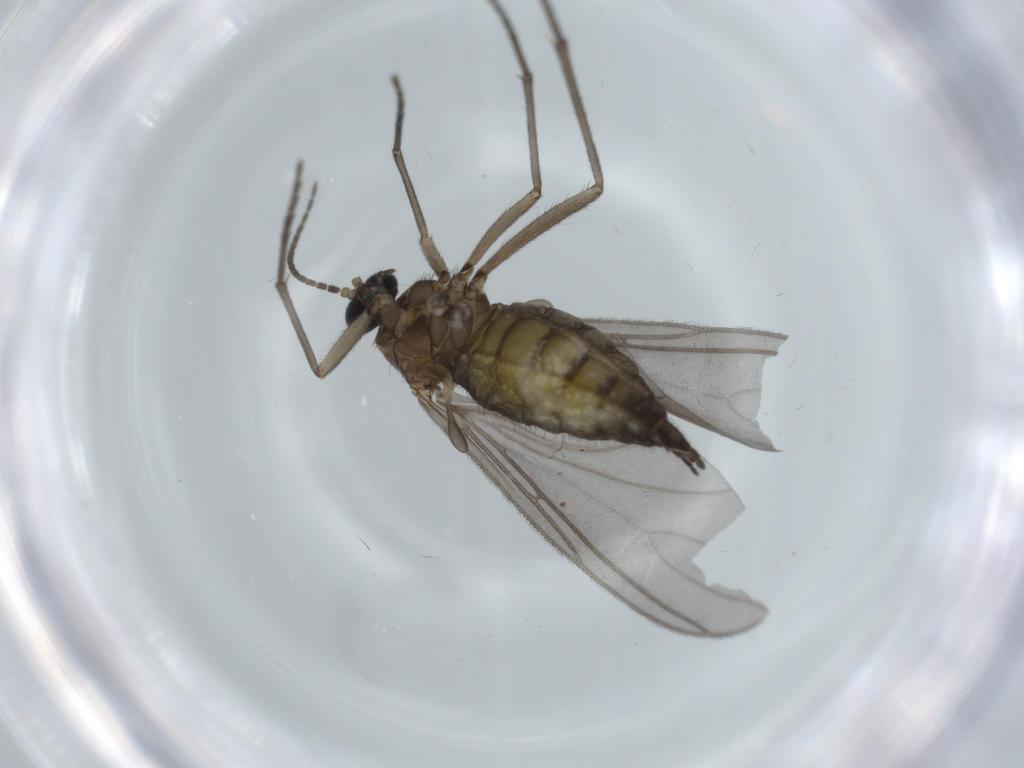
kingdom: Animalia
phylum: Arthropoda
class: Insecta
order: Diptera
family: Sciaridae
